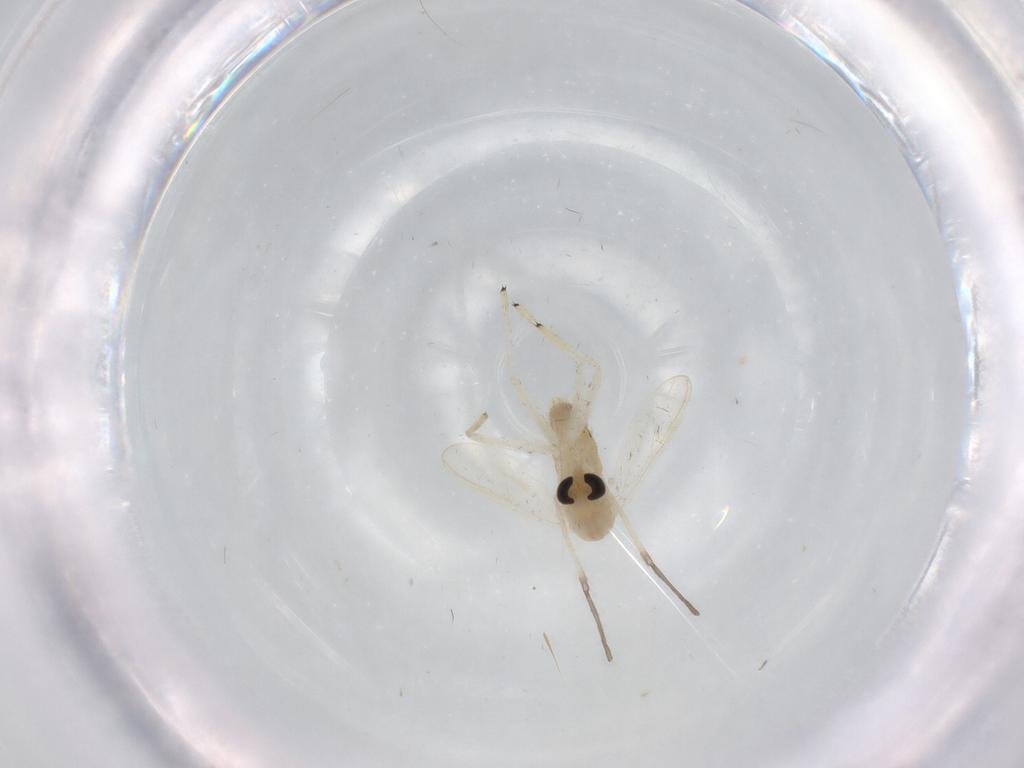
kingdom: Animalia
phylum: Arthropoda
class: Insecta
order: Diptera
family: Chironomidae
